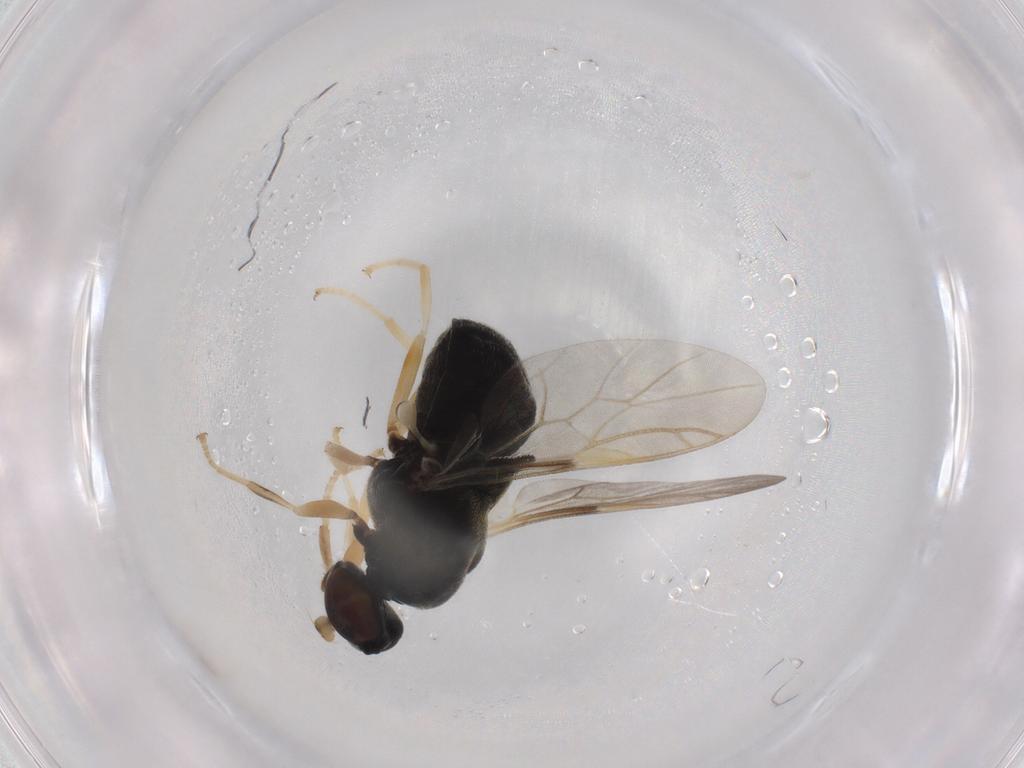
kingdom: Animalia
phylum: Arthropoda
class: Insecta
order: Diptera
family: Stratiomyidae
